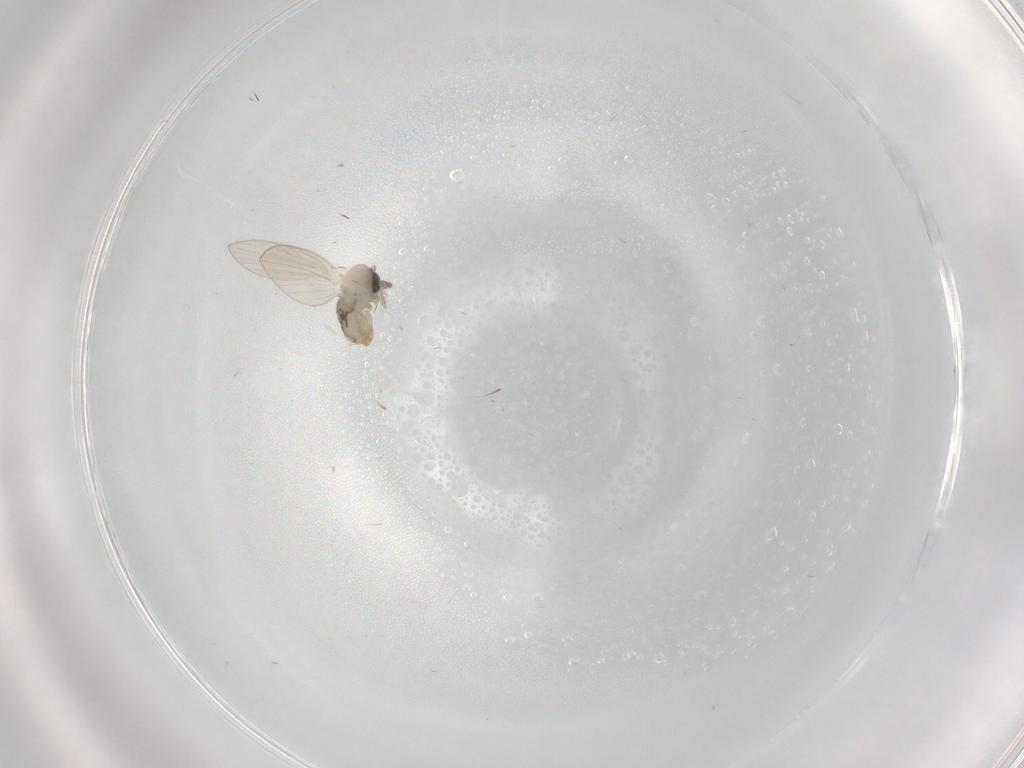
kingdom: Animalia
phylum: Arthropoda
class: Insecta
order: Diptera
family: Psychodidae
